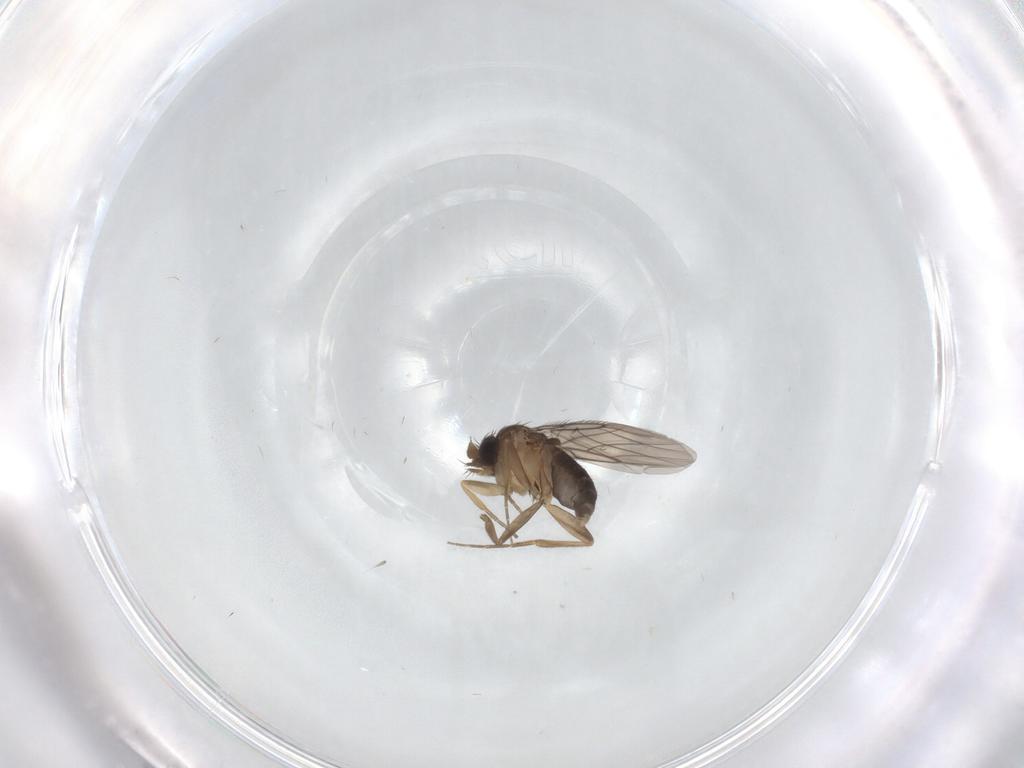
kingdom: Animalia
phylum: Arthropoda
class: Insecta
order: Diptera
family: Phoridae
